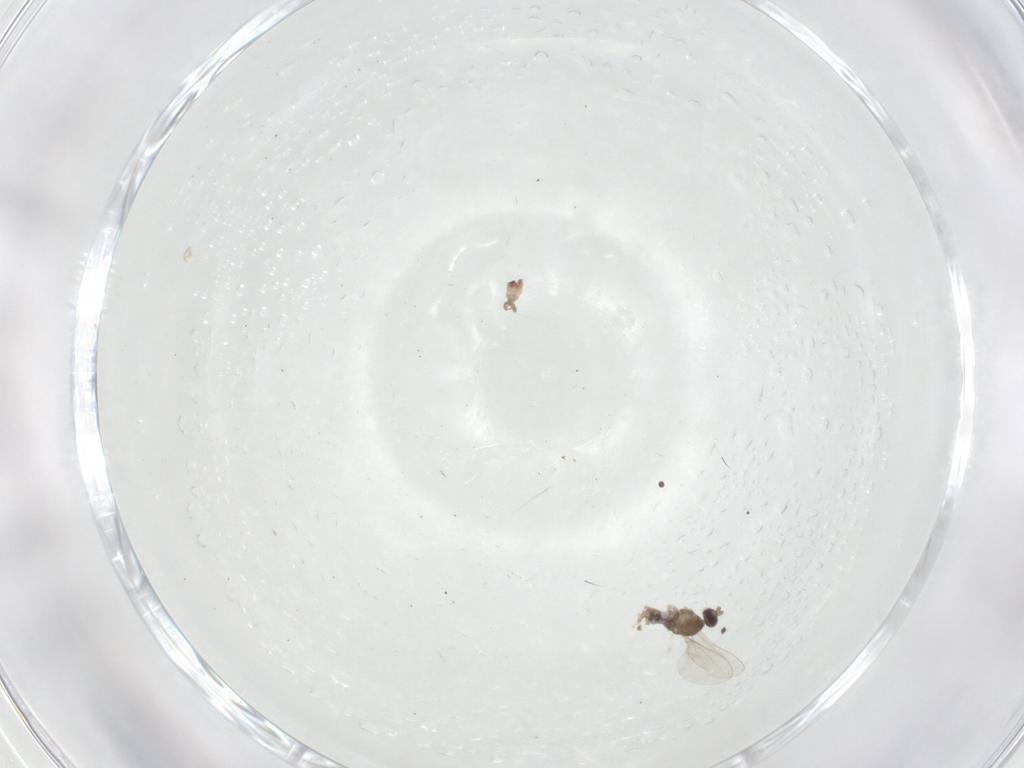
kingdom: Animalia
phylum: Arthropoda
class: Insecta
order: Diptera
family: Cecidomyiidae
